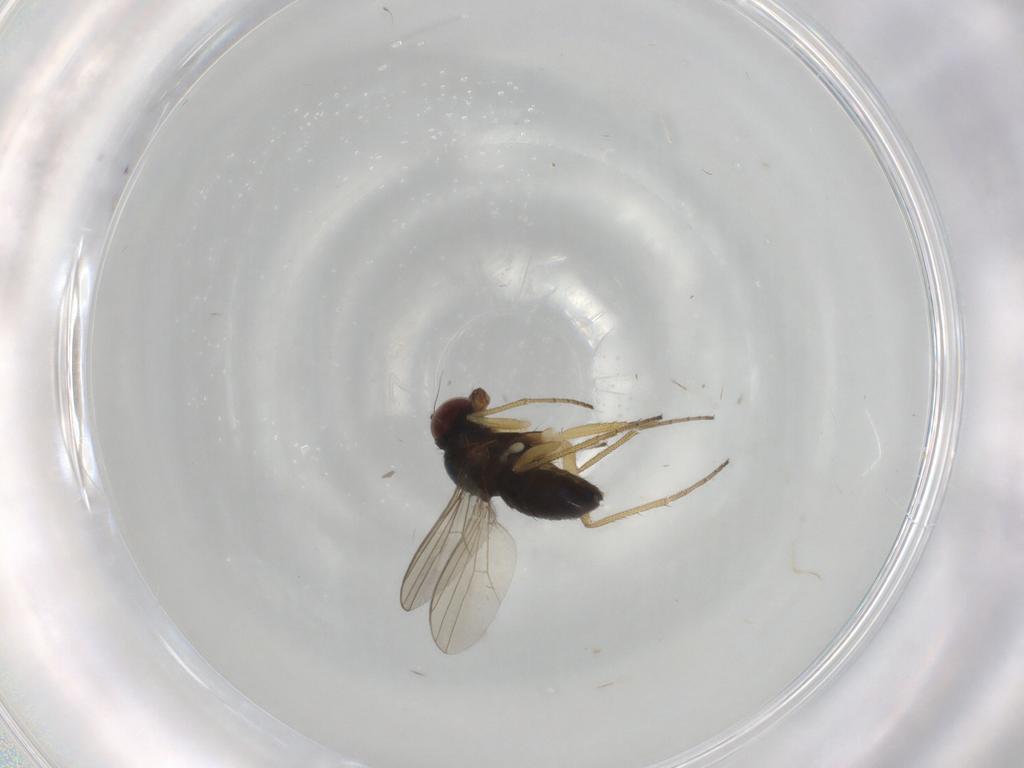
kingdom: Animalia
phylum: Arthropoda
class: Insecta
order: Diptera
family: Dolichopodidae
